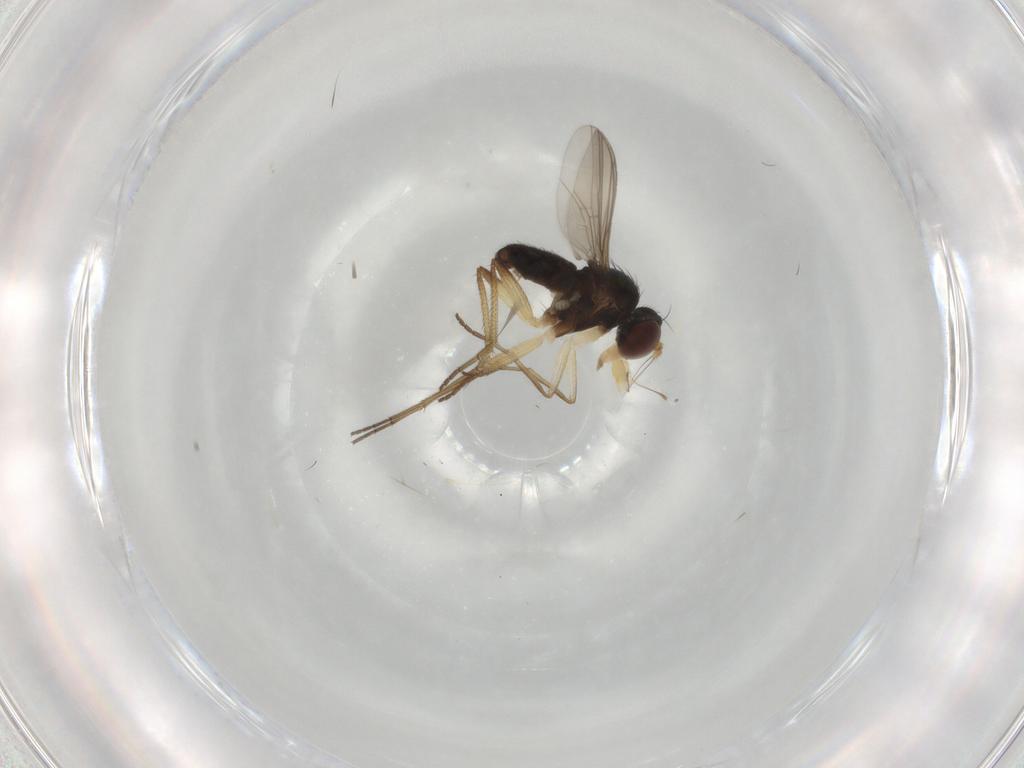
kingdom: Animalia
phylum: Arthropoda
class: Insecta
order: Diptera
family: Dolichopodidae
